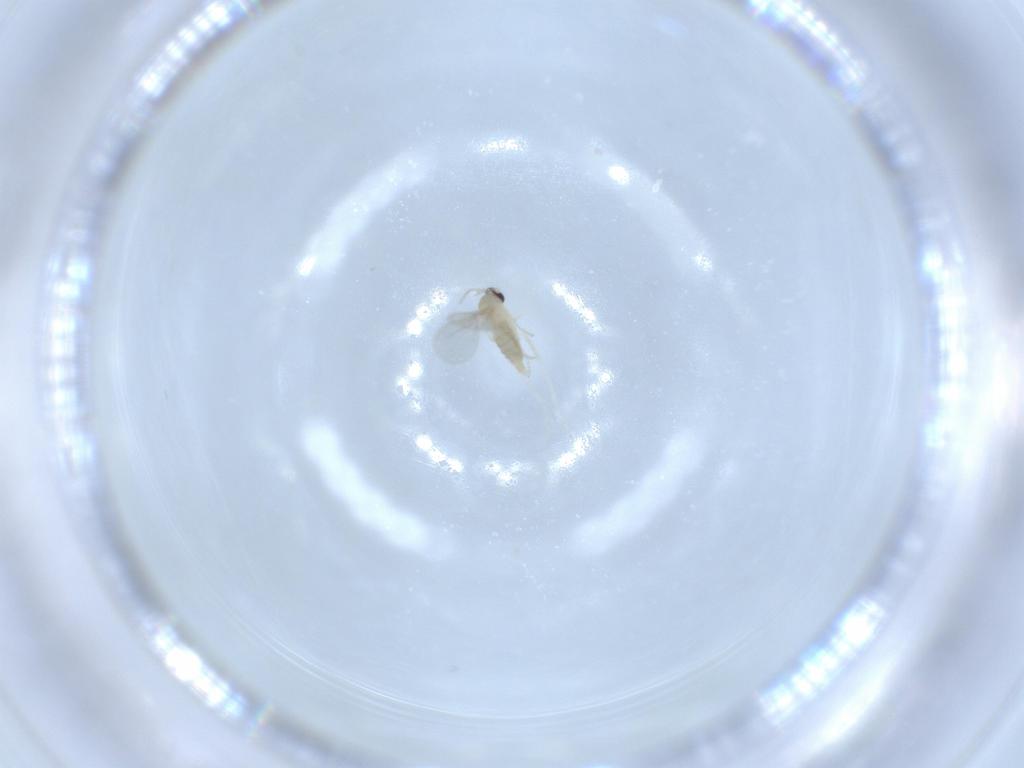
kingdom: Animalia
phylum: Arthropoda
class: Insecta
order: Diptera
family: Cecidomyiidae
